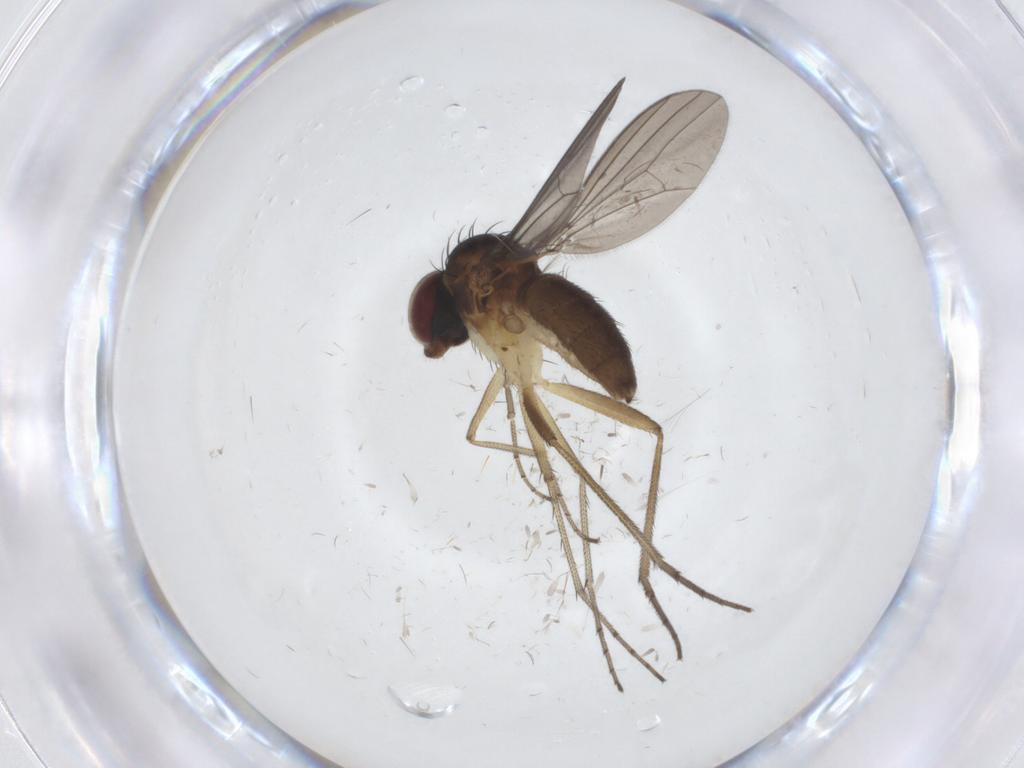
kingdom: Animalia
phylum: Arthropoda
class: Insecta
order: Diptera
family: Dolichopodidae
